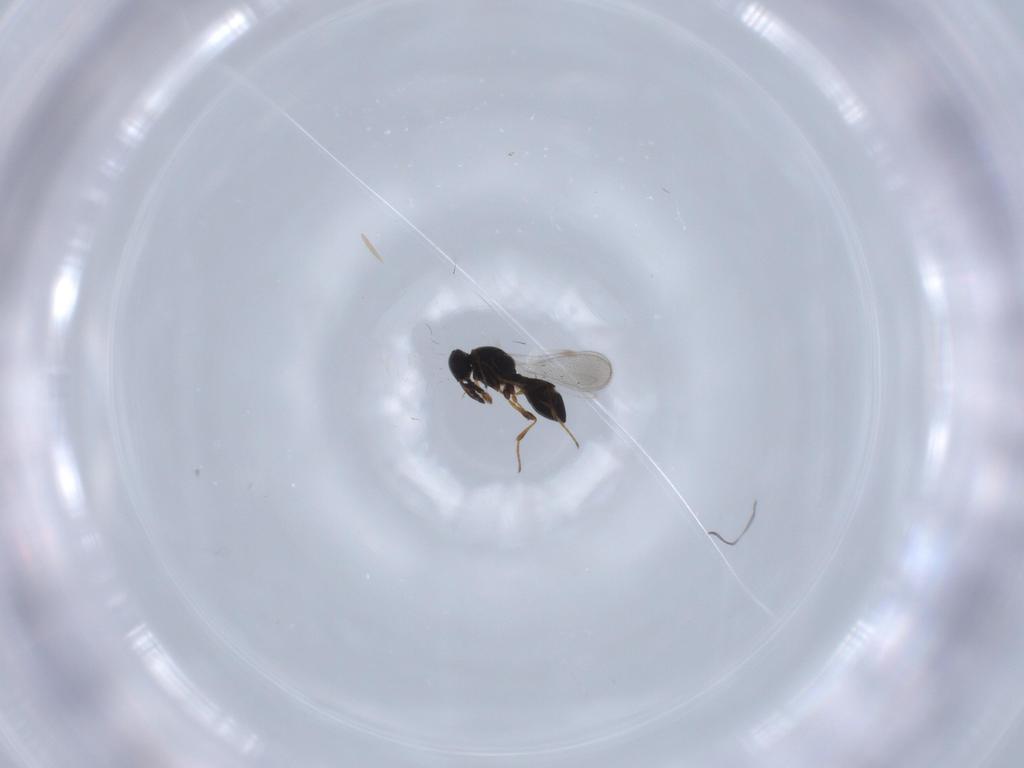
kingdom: Animalia
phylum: Arthropoda
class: Insecta
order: Hymenoptera
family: Platygastridae
